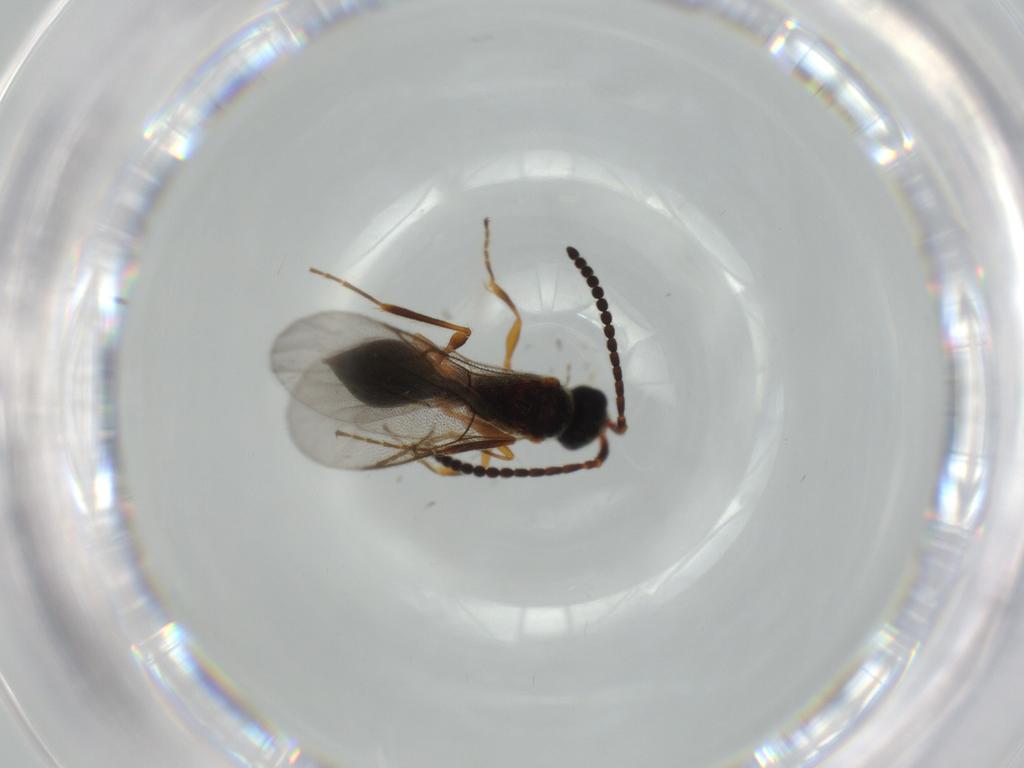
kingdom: Animalia
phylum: Arthropoda
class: Insecta
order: Hymenoptera
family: Diapriidae
